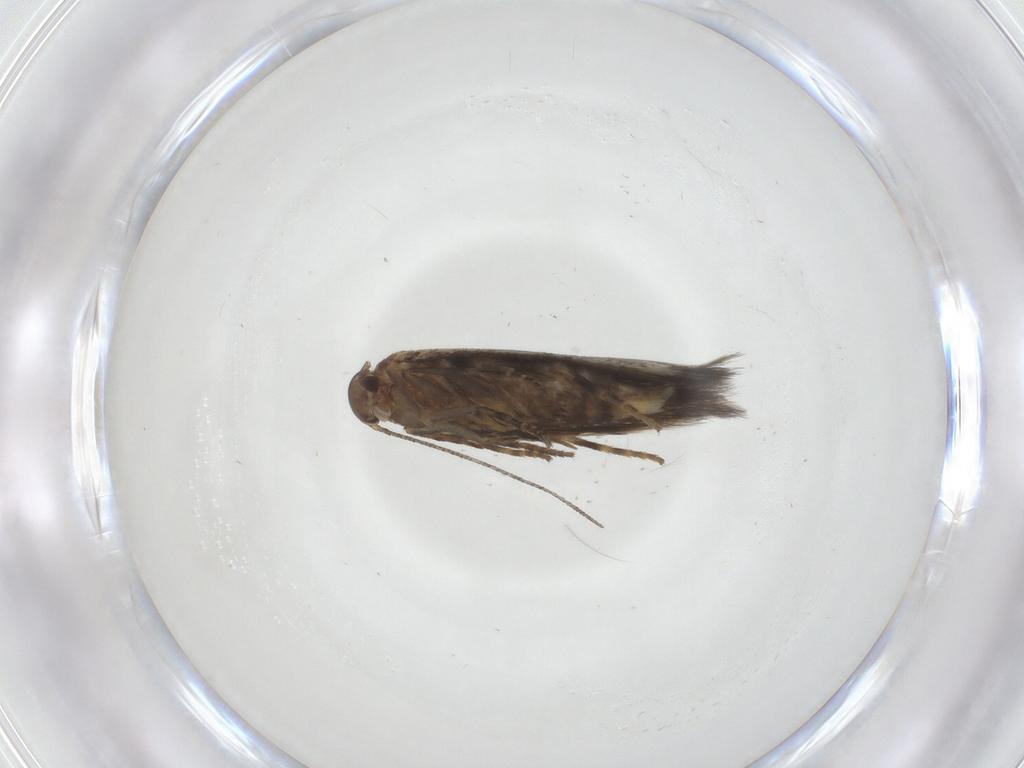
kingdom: Animalia
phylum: Arthropoda
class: Insecta
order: Lepidoptera
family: Elachistidae
